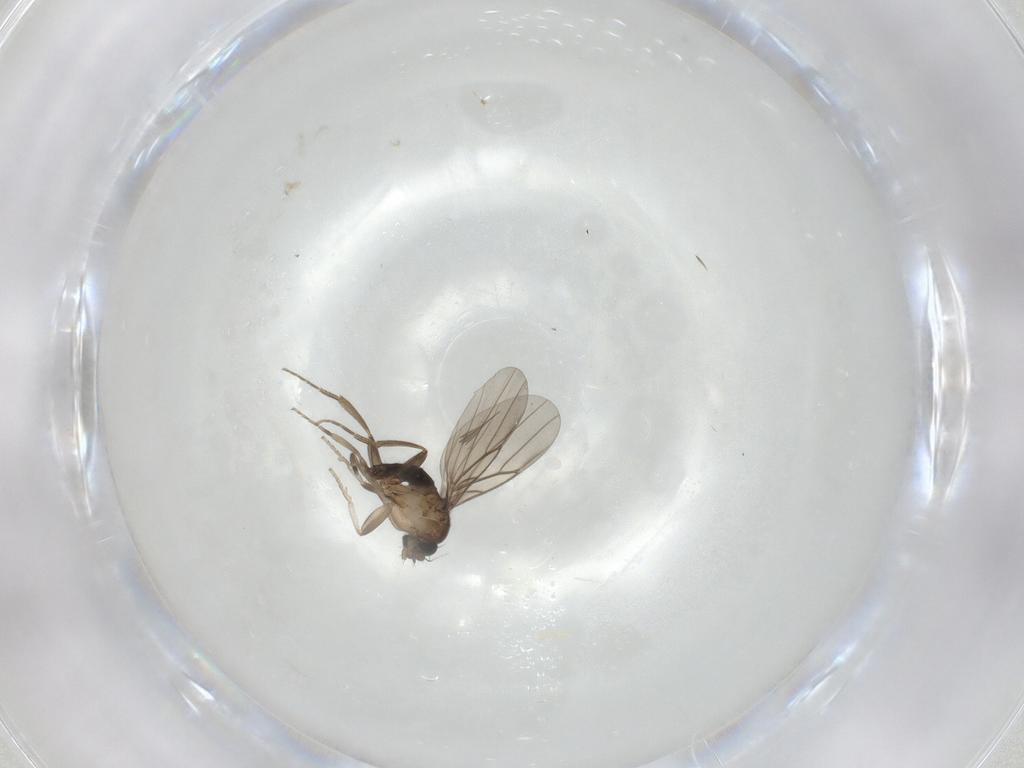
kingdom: Animalia
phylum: Arthropoda
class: Insecta
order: Diptera
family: Phoridae
